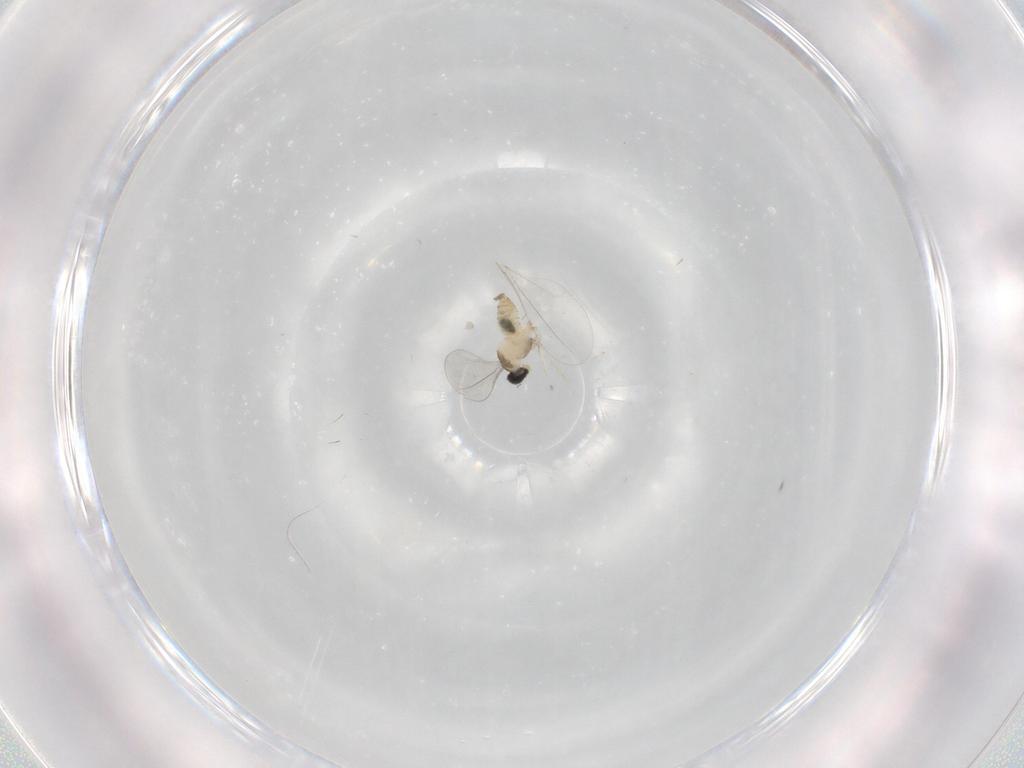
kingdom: Animalia
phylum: Arthropoda
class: Insecta
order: Diptera
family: Cecidomyiidae
